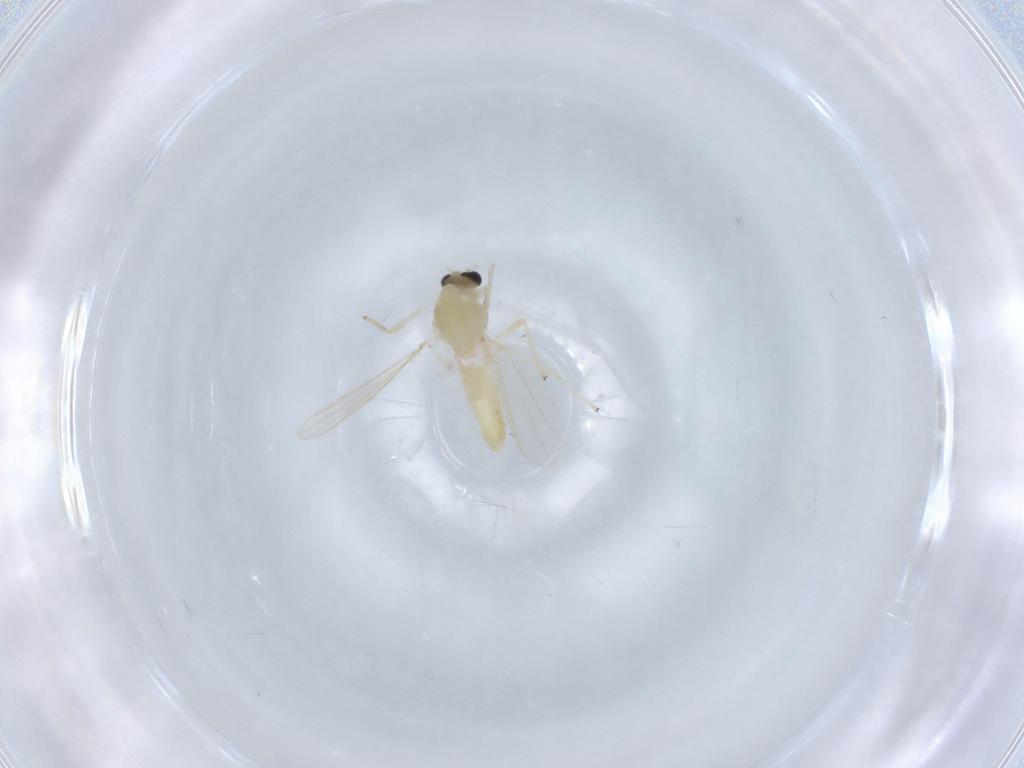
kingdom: Animalia
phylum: Arthropoda
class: Insecta
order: Diptera
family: Chironomidae
